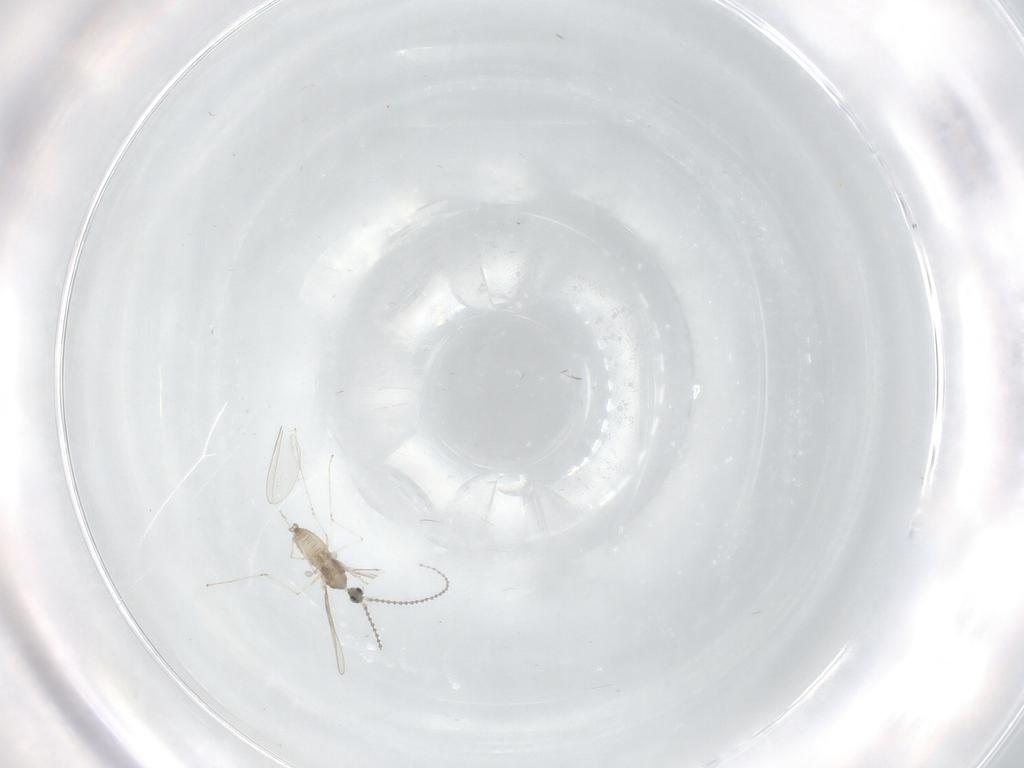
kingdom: Animalia
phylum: Arthropoda
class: Insecta
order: Diptera
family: Cecidomyiidae
